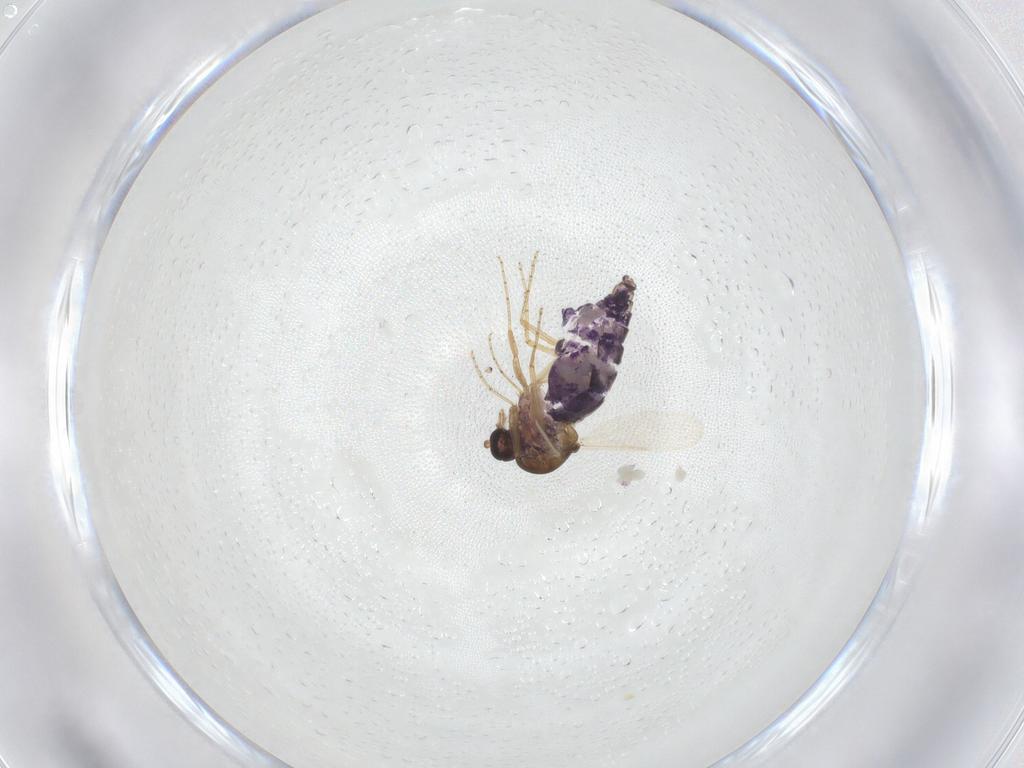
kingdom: Animalia
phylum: Arthropoda
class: Insecta
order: Diptera
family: Ceratopogonidae
